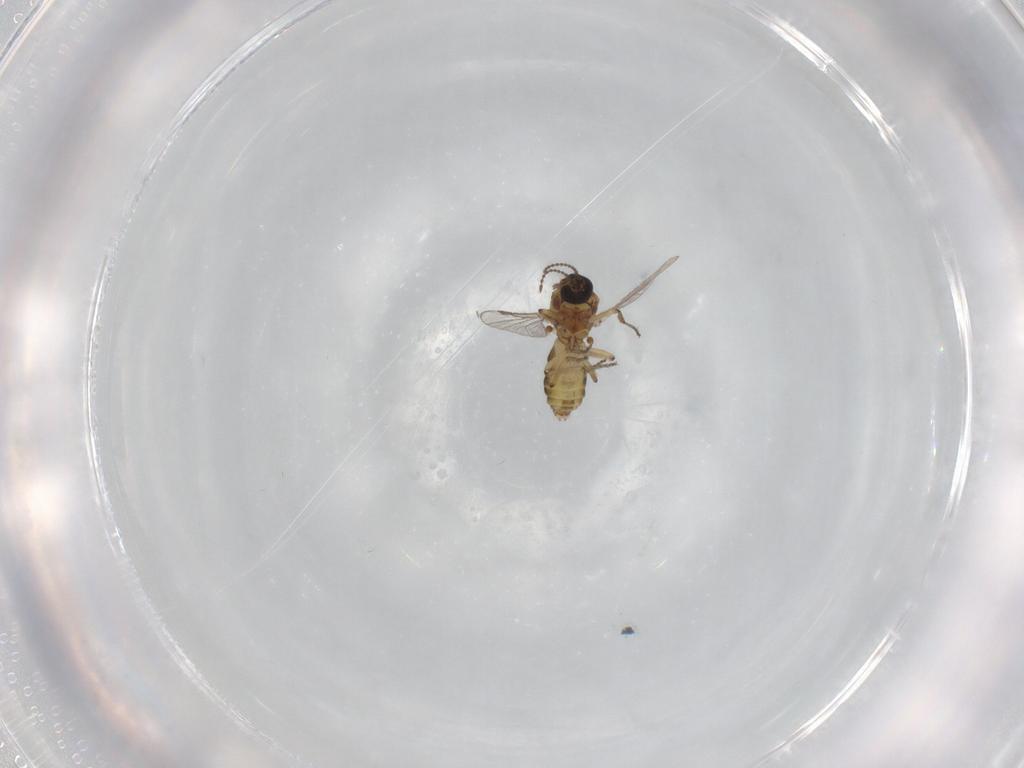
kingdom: Animalia
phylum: Arthropoda
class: Insecta
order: Diptera
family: Ceratopogonidae
